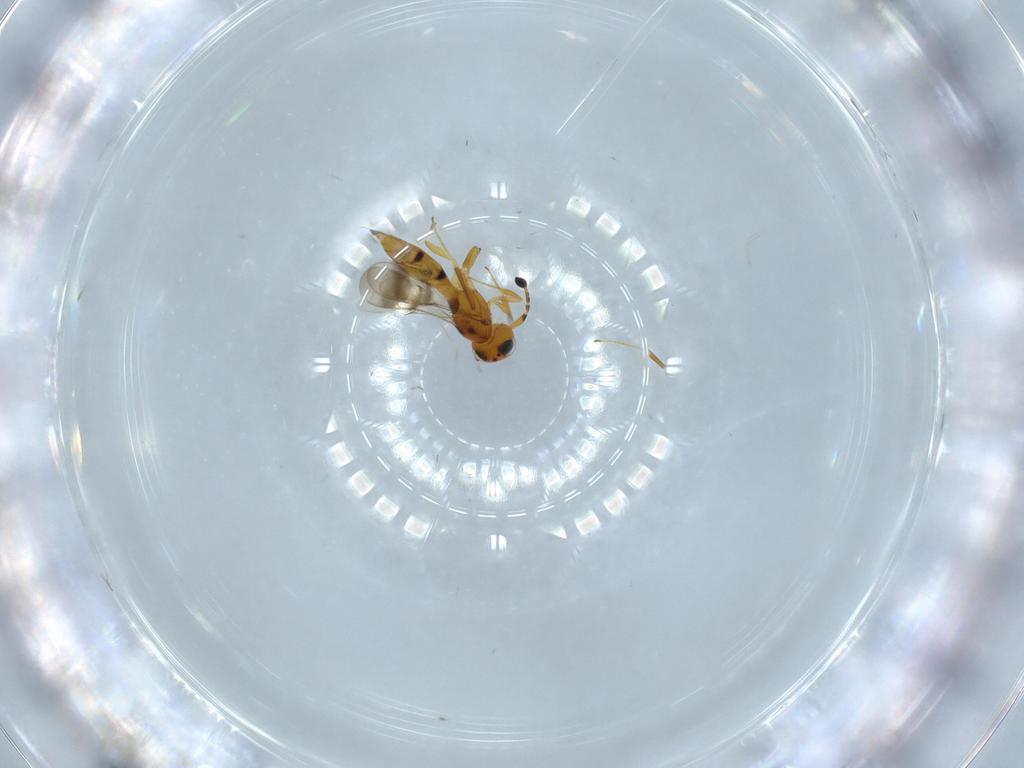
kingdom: Animalia
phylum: Arthropoda
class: Insecta
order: Hymenoptera
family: Scelionidae
